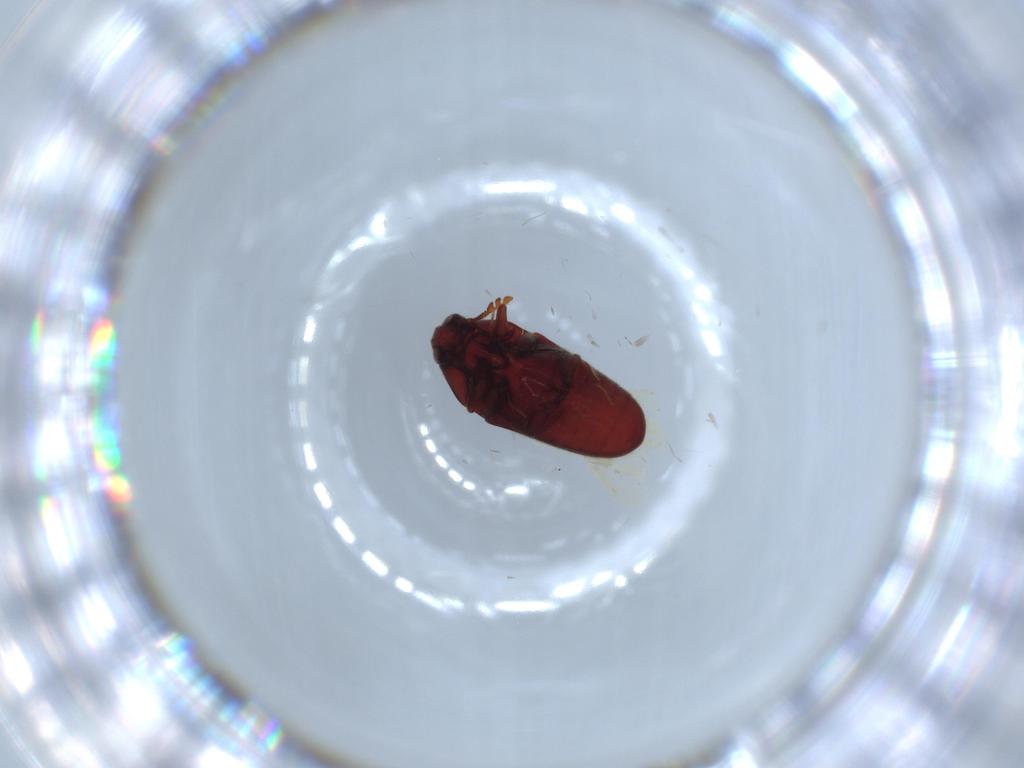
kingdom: Animalia
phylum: Arthropoda
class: Insecta
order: Coleoptera
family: Throscidae
